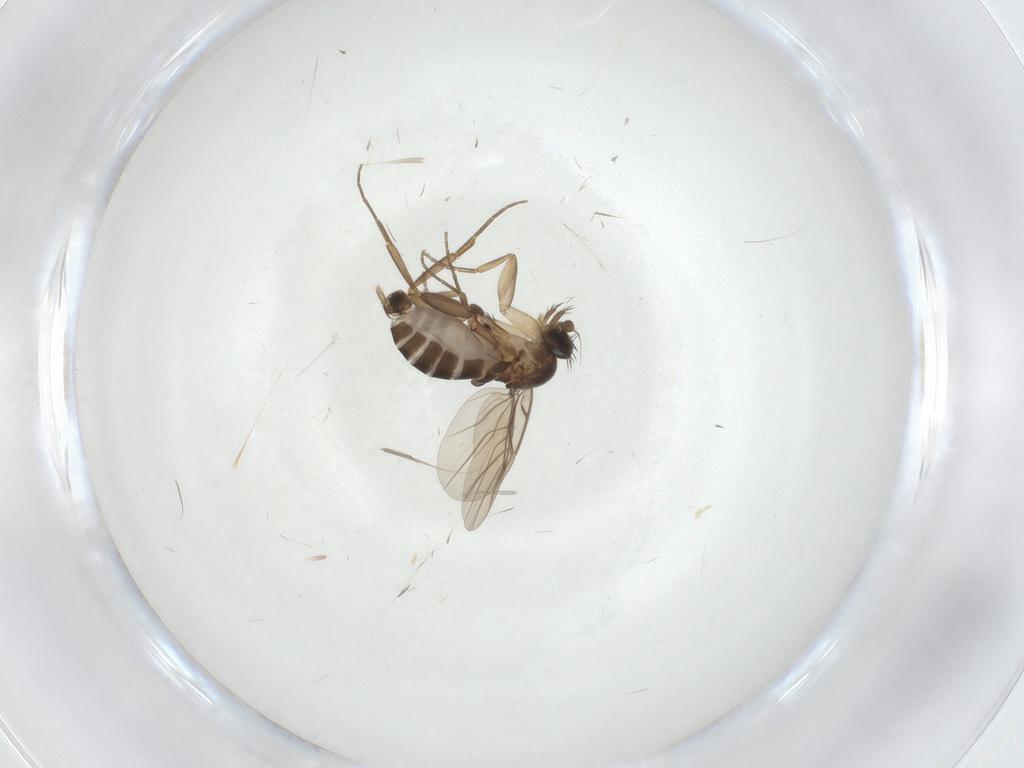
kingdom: Animalia
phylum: Arthropoda
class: Insecta
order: Diptera
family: Phoridae
